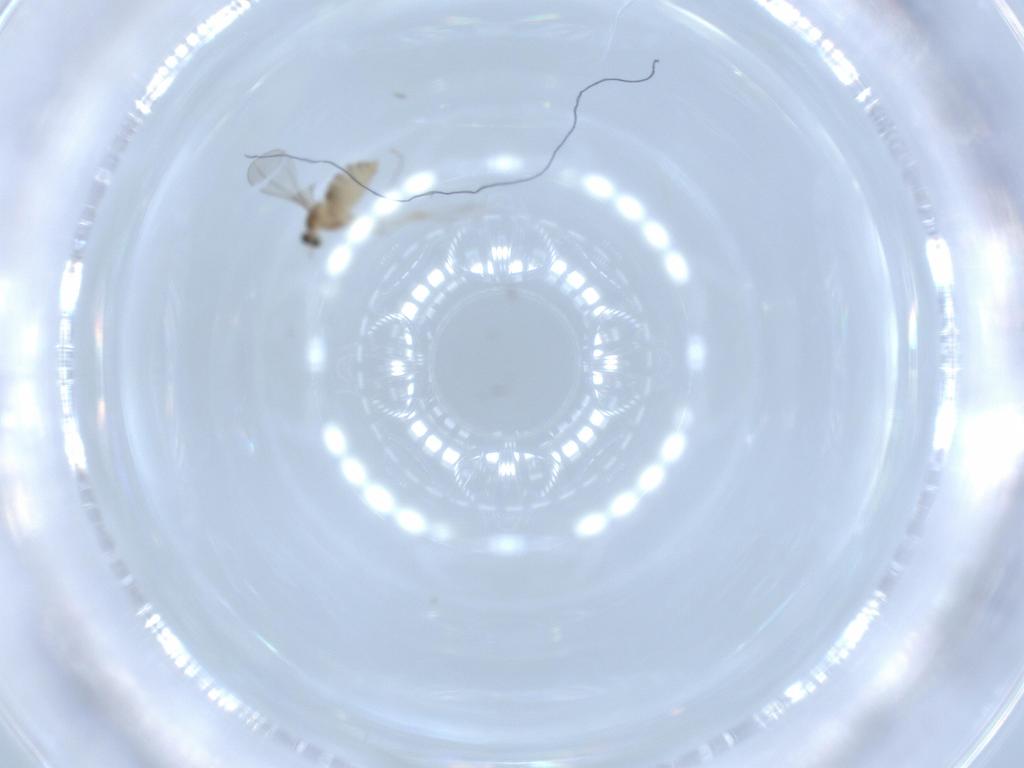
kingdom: Animalia
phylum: Arthropoda
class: Insecta
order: Diptera
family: Cecidomyiidae
